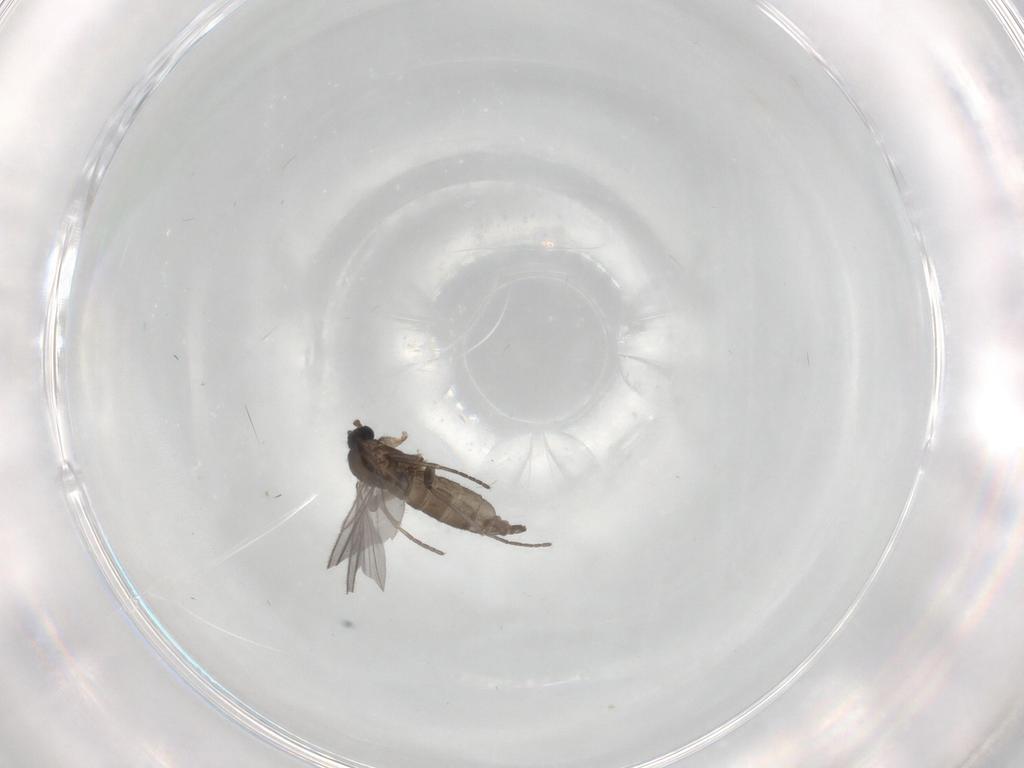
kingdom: Animalia
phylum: Arthropoda
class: Insecta
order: Diptera
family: Sciaridae
